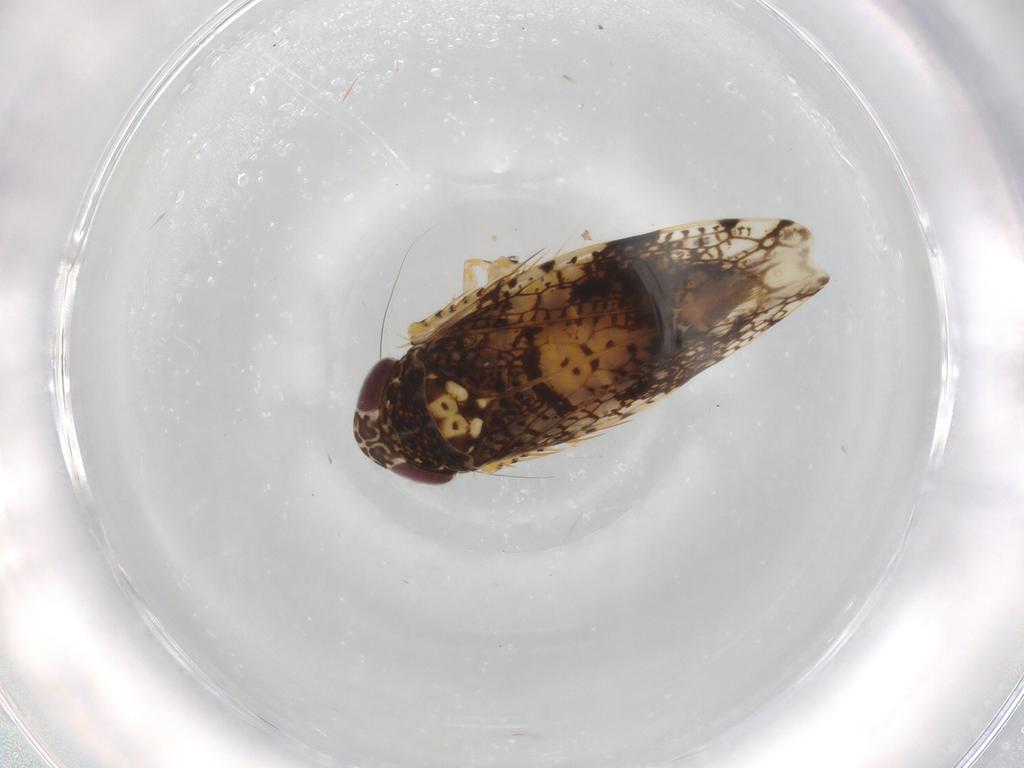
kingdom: Animalia
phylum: Arthropoda
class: Insecta
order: Hemiptera
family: Cicadellidae
